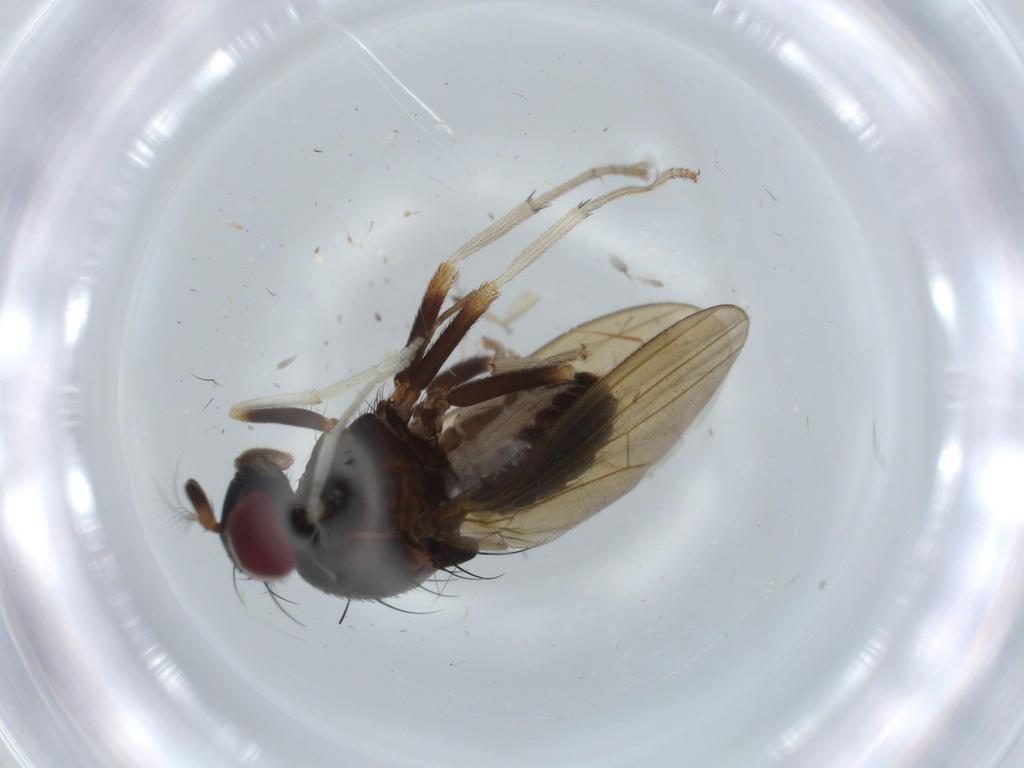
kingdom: Animalia
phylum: Arthropoda
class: Insecta
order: Diptera
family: Cecidomyiidae
